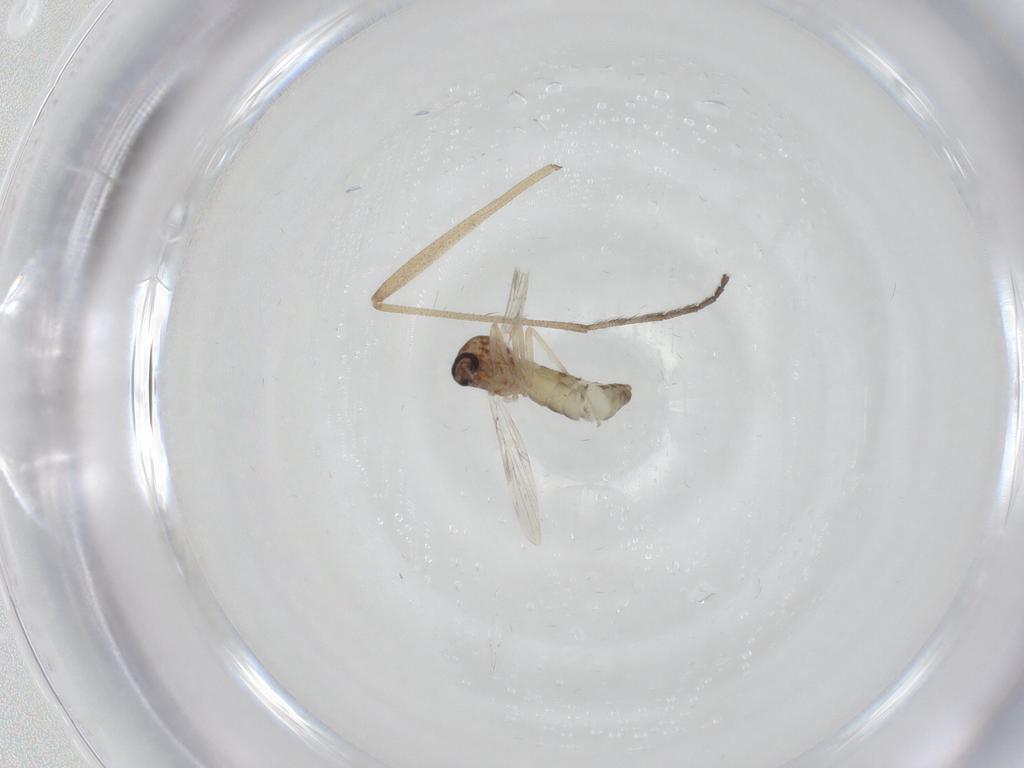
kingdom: Animalia
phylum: Arthropoda
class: Insecta
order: Diptera
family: Ceratopogonidae
